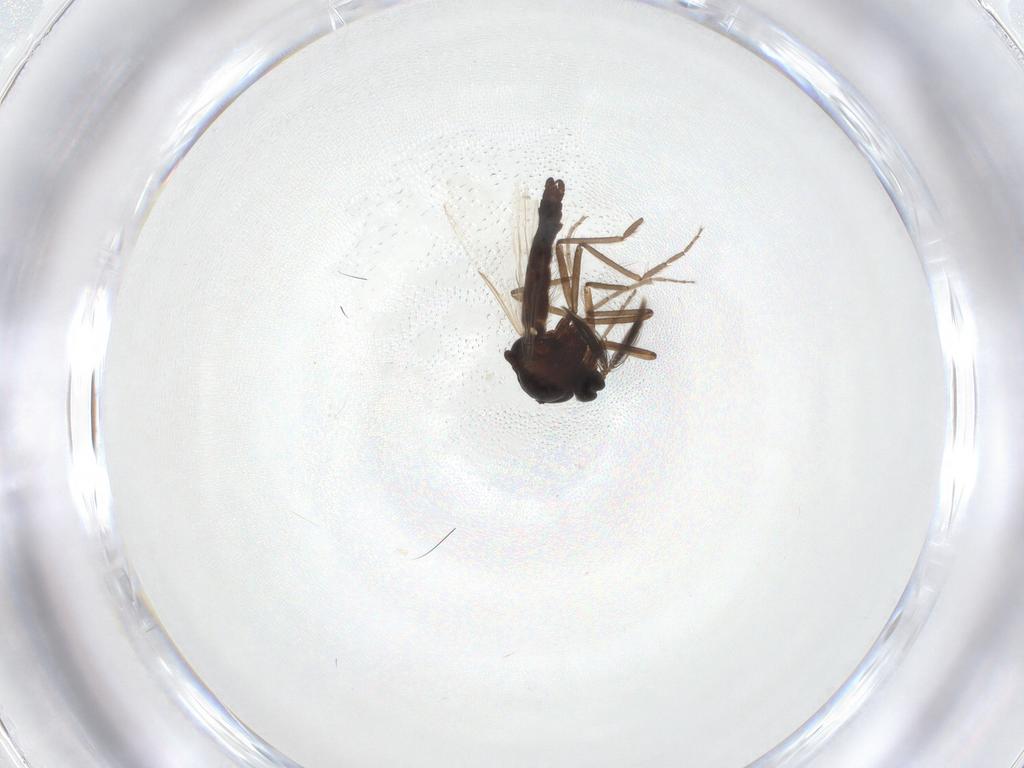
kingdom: Animalia
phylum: Arthropoda
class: Insecta
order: Diptera
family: Ceratopogonidae
